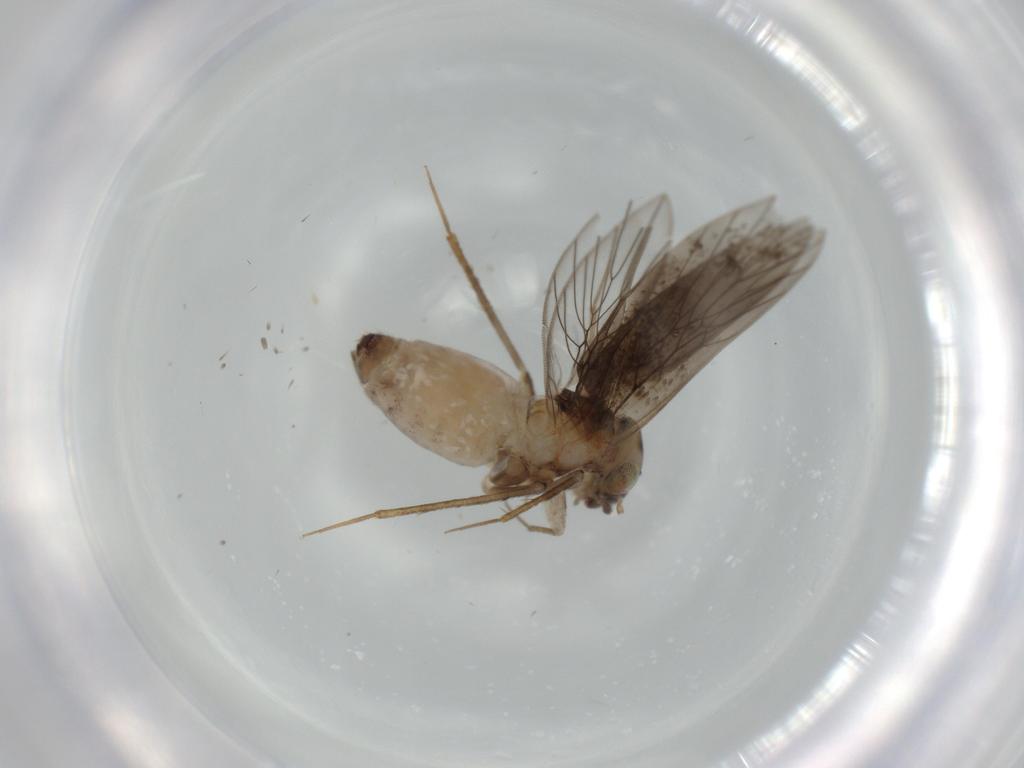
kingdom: Animalia
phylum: Arthropoda
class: Insecta
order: Psocodea
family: Lepidopsocidae
